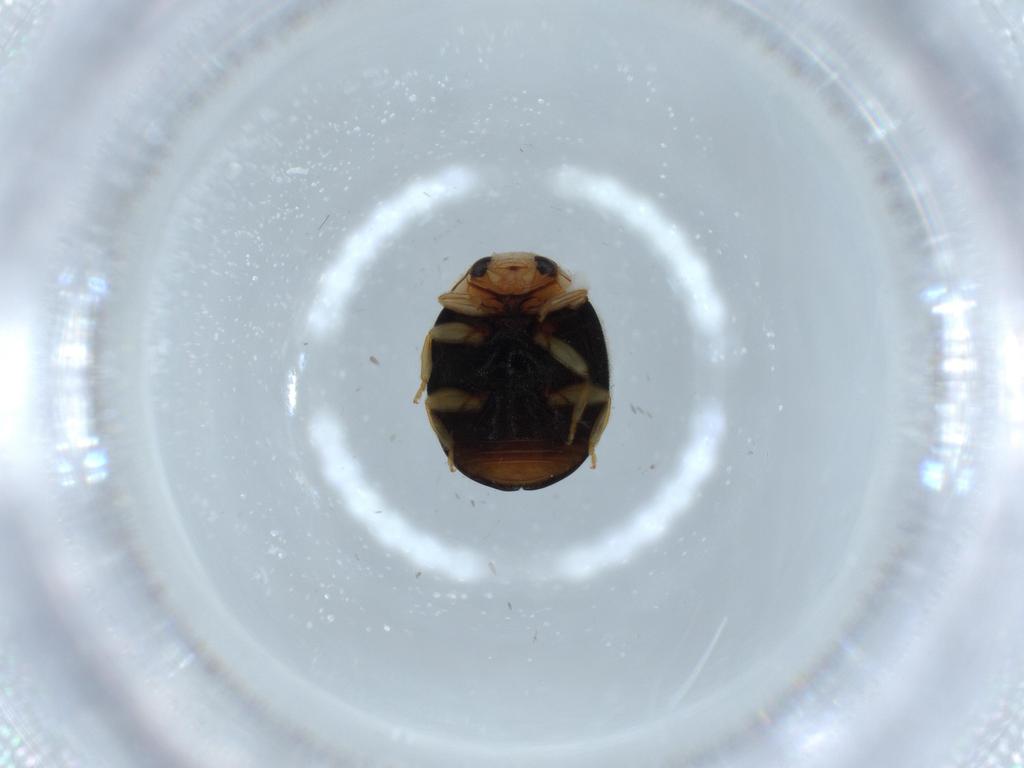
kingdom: Animalia
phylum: Arthropoda
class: Insecta
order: Coleoptera
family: Coccinellidae
